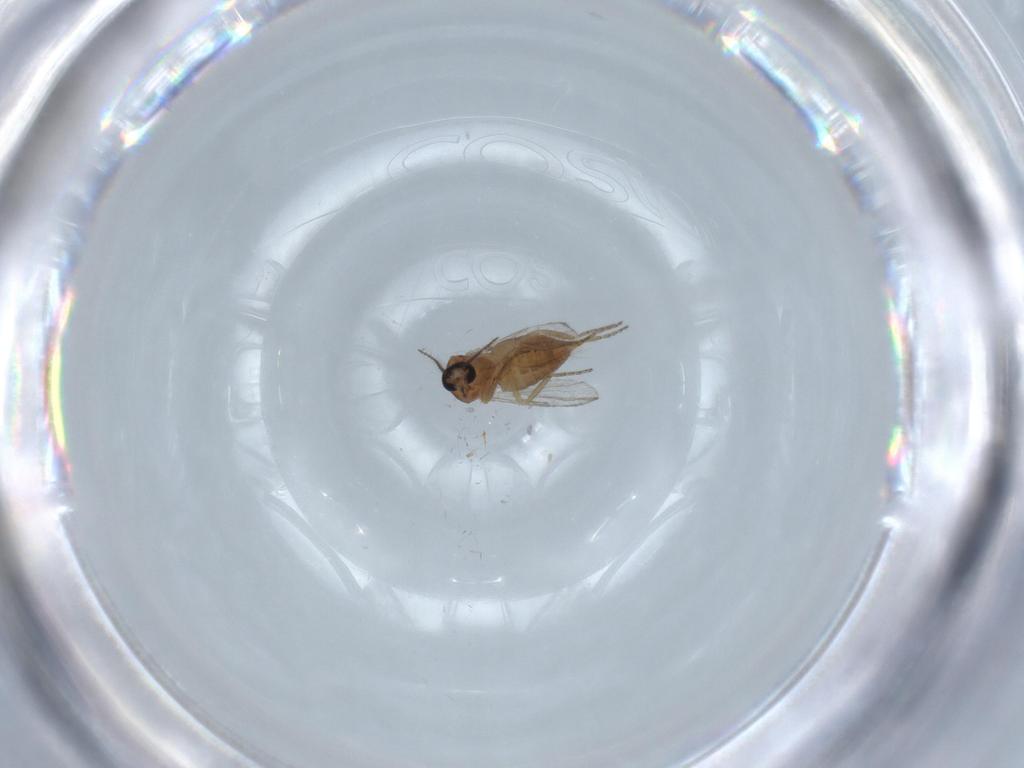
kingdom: Animalia
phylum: Arthropoda
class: Insecta
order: Diptera
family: Ceratopogonidae
